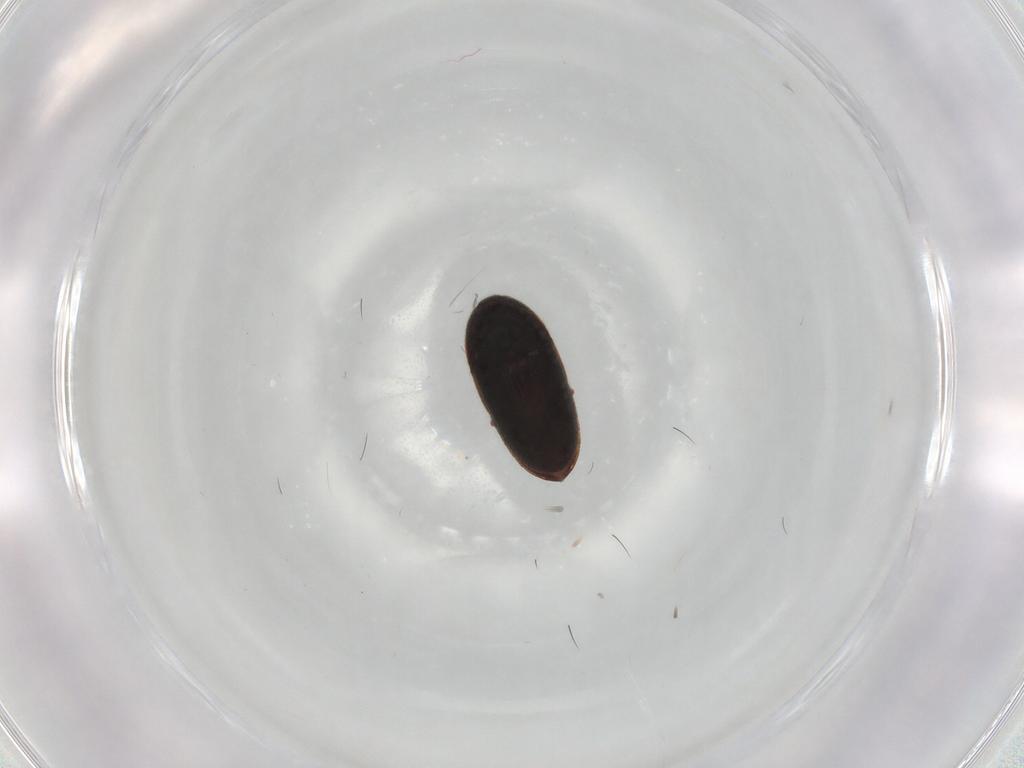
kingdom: Animalia
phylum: Arthropoda
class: Insecta
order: Coleoptera
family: Throscidae
